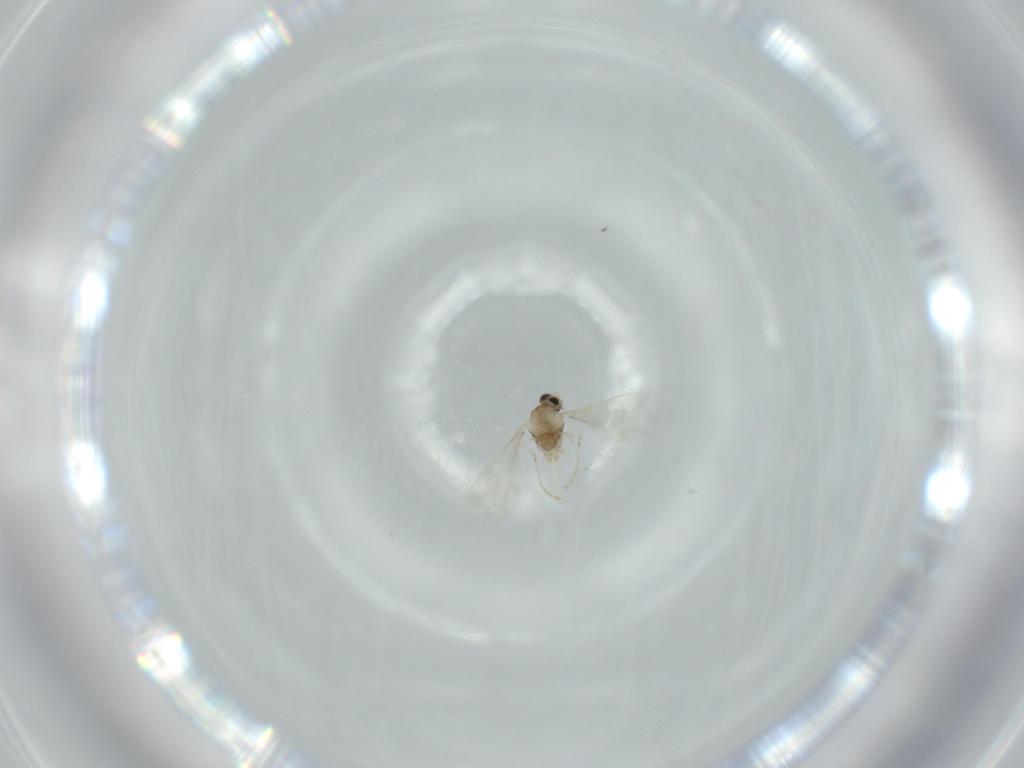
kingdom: Animalia
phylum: Arthropoda
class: Insecta
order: Diptera
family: Cecidomyiidae
